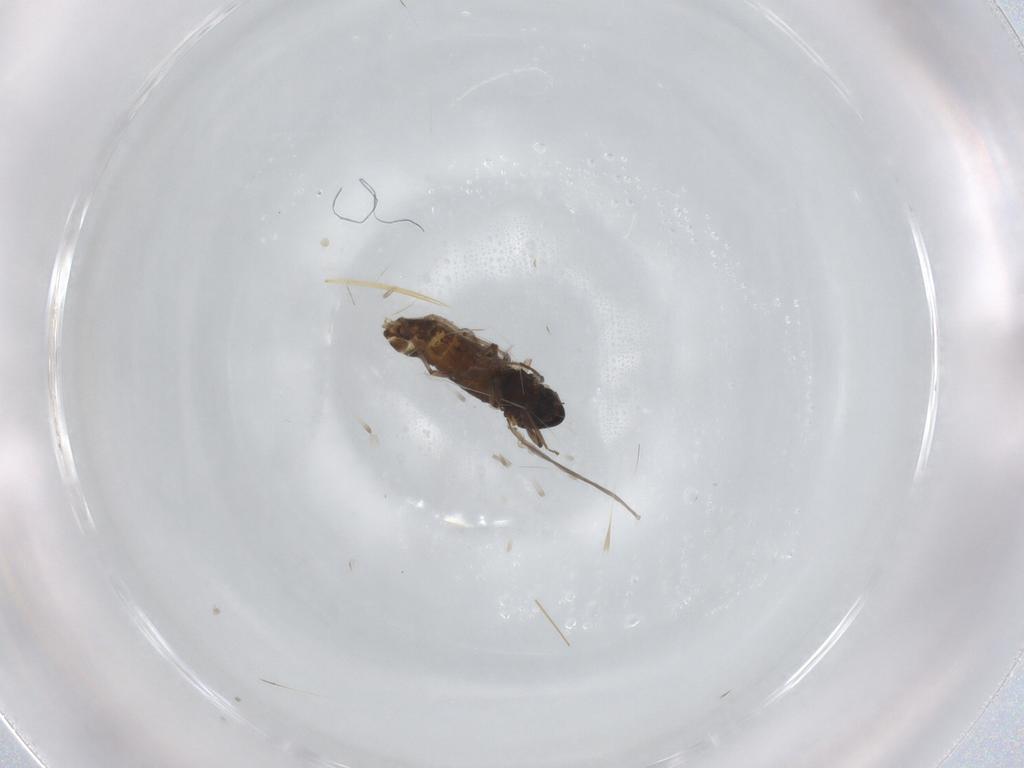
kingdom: Animalia
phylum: Arthropoda
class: Insecta
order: Diptera
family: Chironomidae
